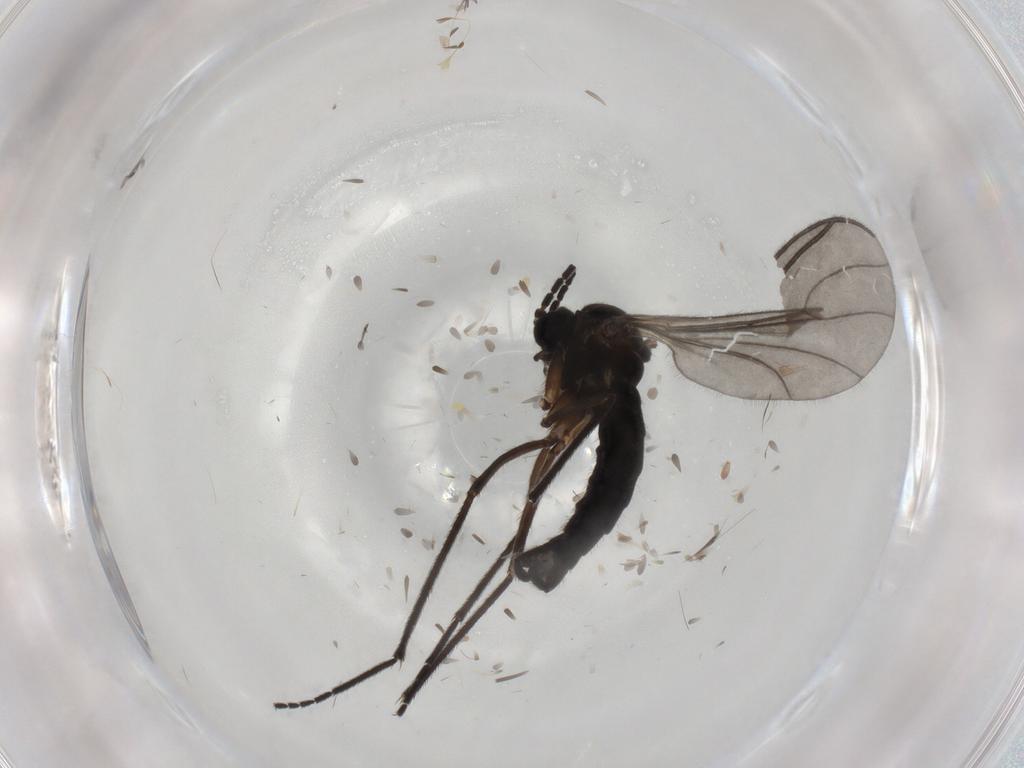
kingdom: Animalia
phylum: Arthropoda
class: Insecta
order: Diptera
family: Sciaridae
